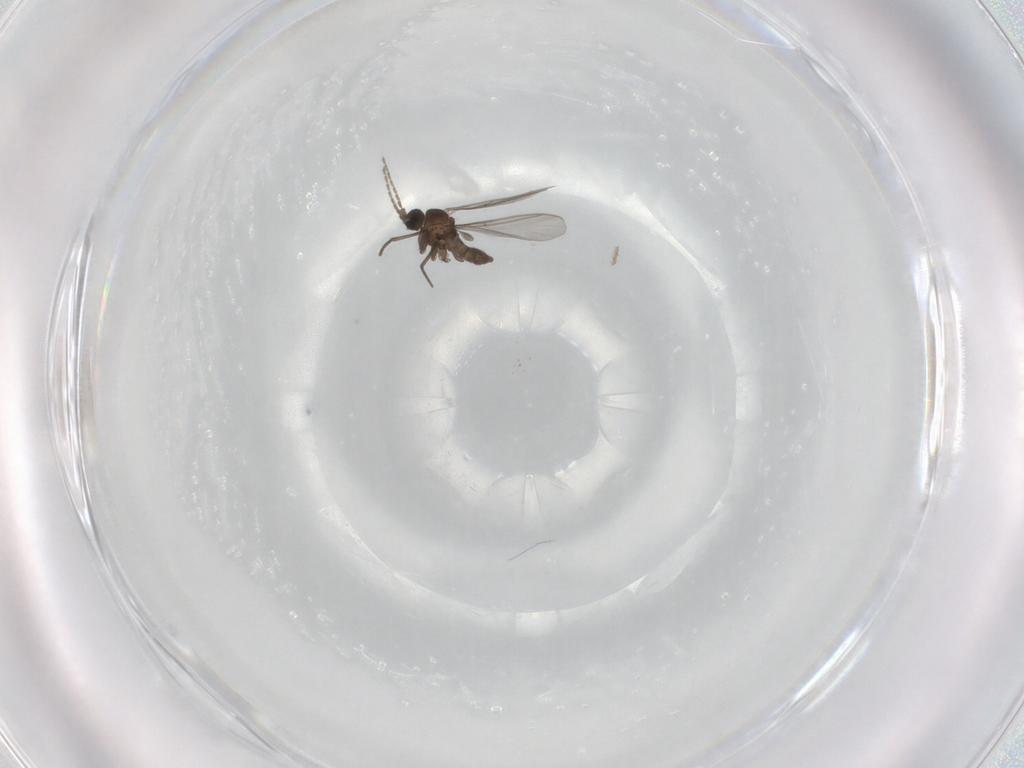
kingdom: Animalia
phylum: Arthropoda
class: Insecta
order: Diptera
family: Sciaridae
